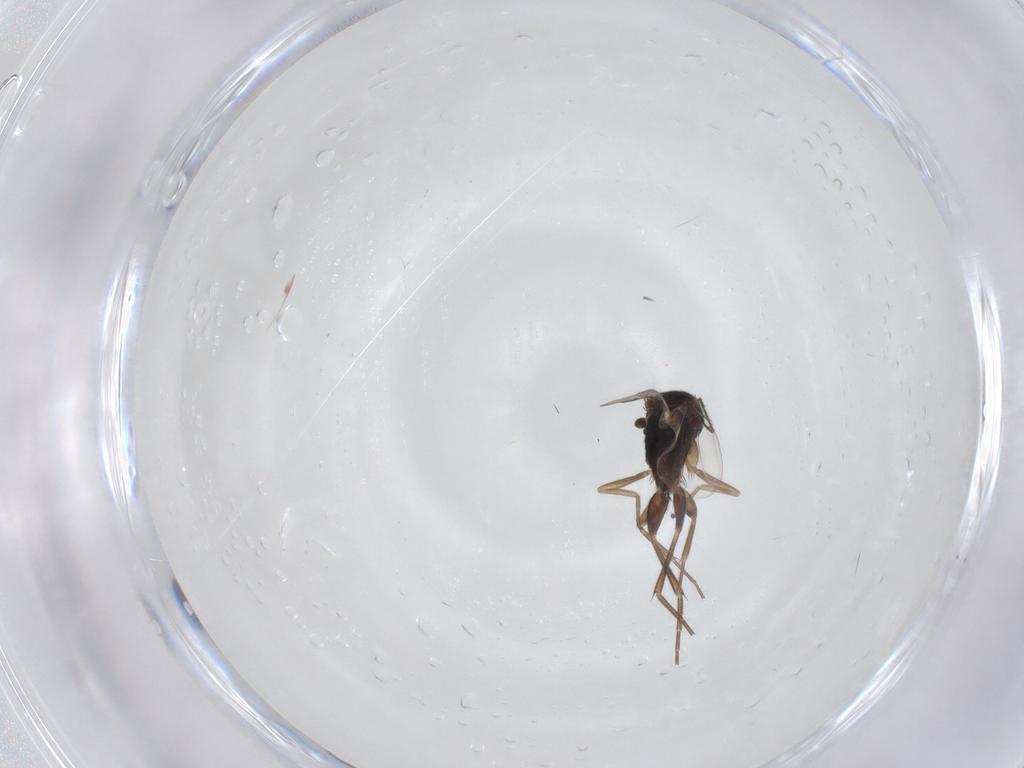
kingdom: Animalia
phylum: Arthropoda
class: Insecta
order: Diptera
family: Phoridae
